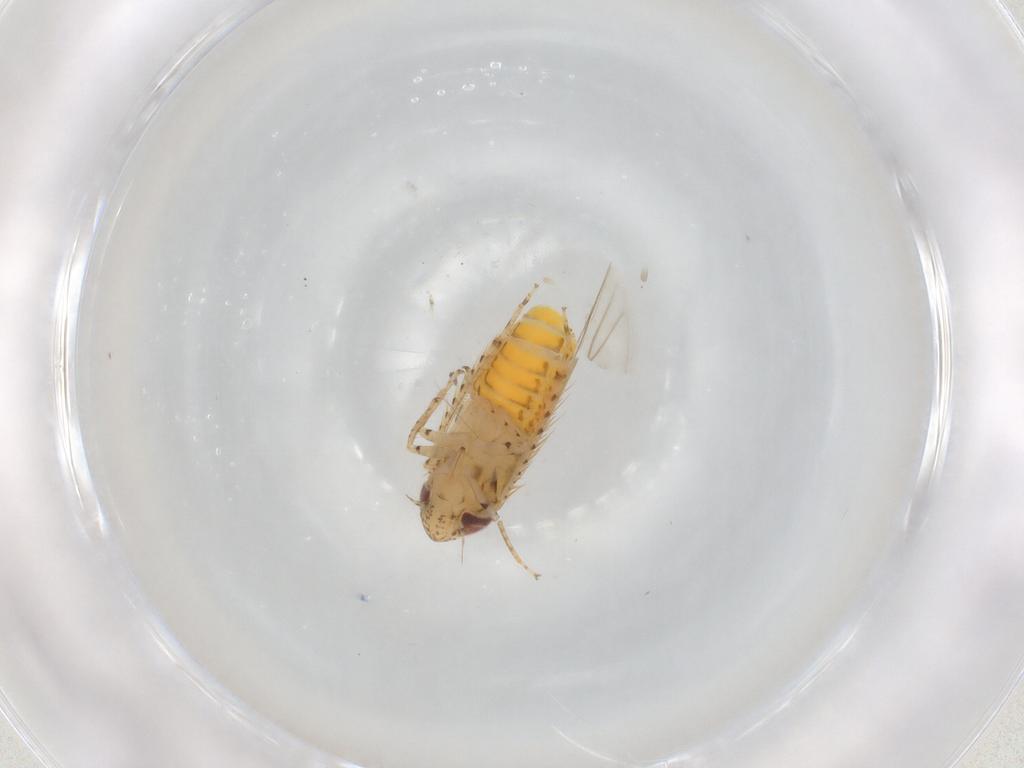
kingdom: Animalia
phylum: Arthropoda
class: Insecta
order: Hemiptera
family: Cicadellidae
